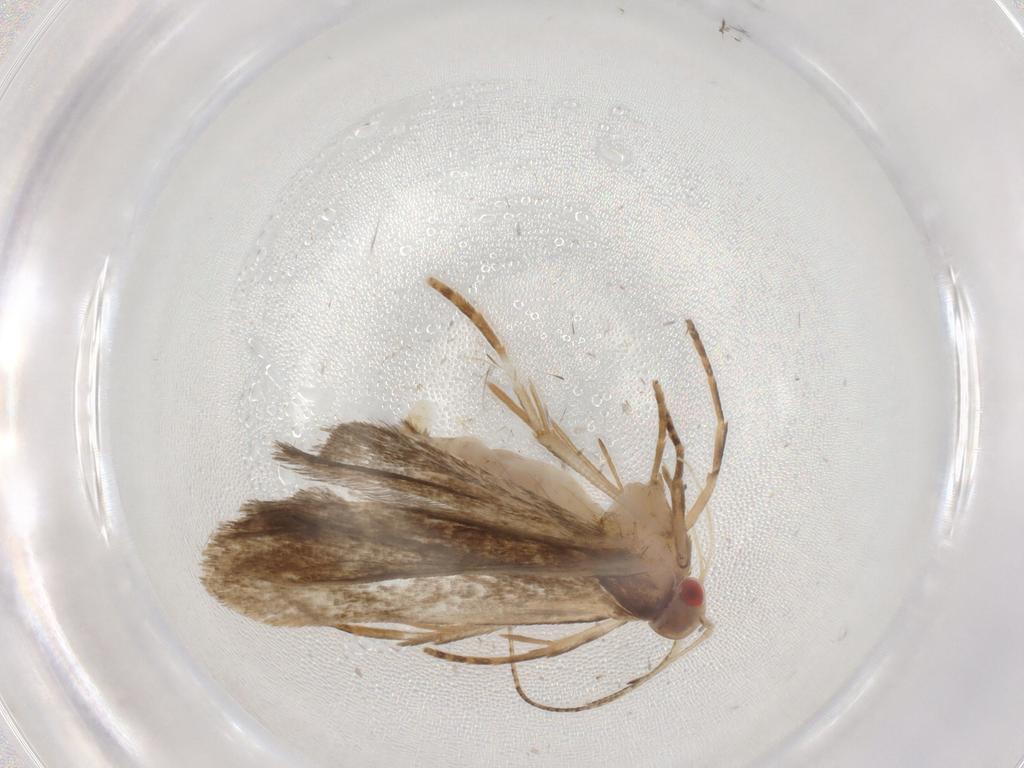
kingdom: Animalia
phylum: Arthropoda
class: Insecta
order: Lepidoptera
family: Gelechiidae
